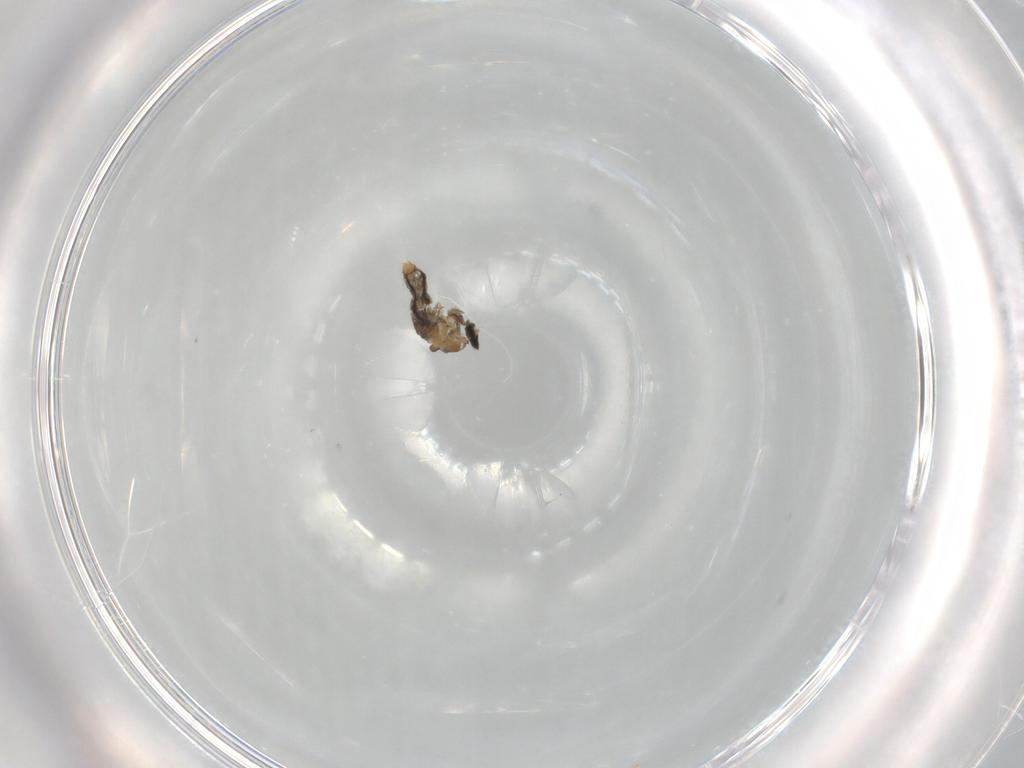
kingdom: Animalia
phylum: Arthropoda
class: Insecta
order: Diptera
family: Cecidomyiidae
